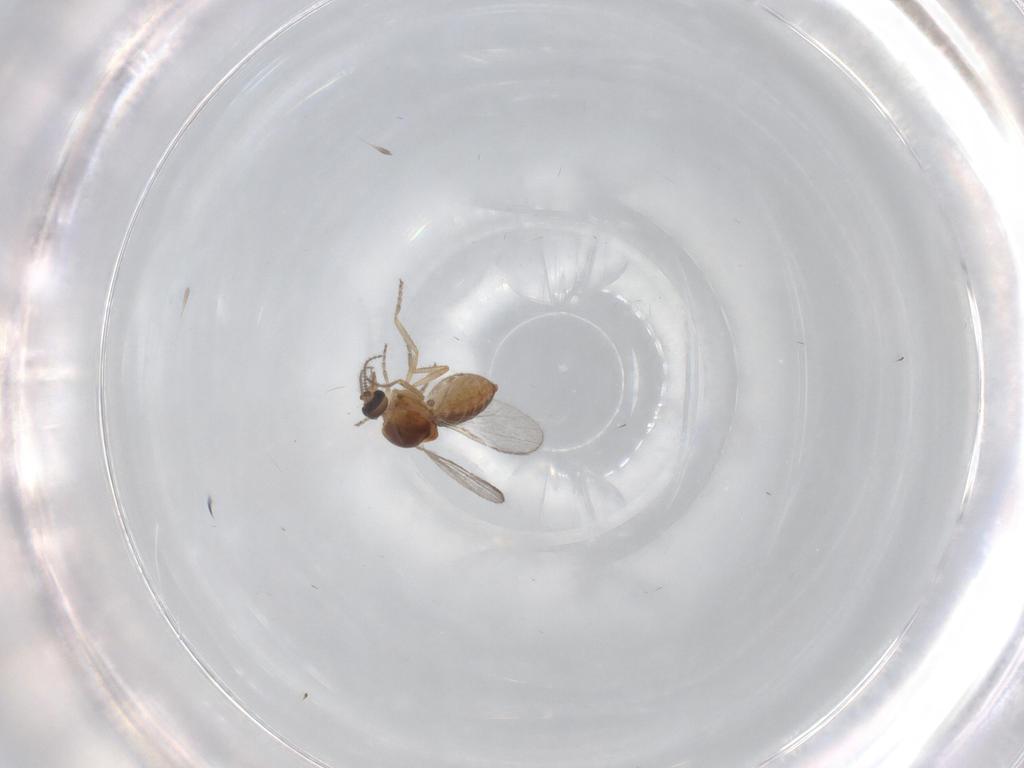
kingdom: Animalia
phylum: Arthropoda
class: Insecta
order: Diptera
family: Ceratopogonidae
